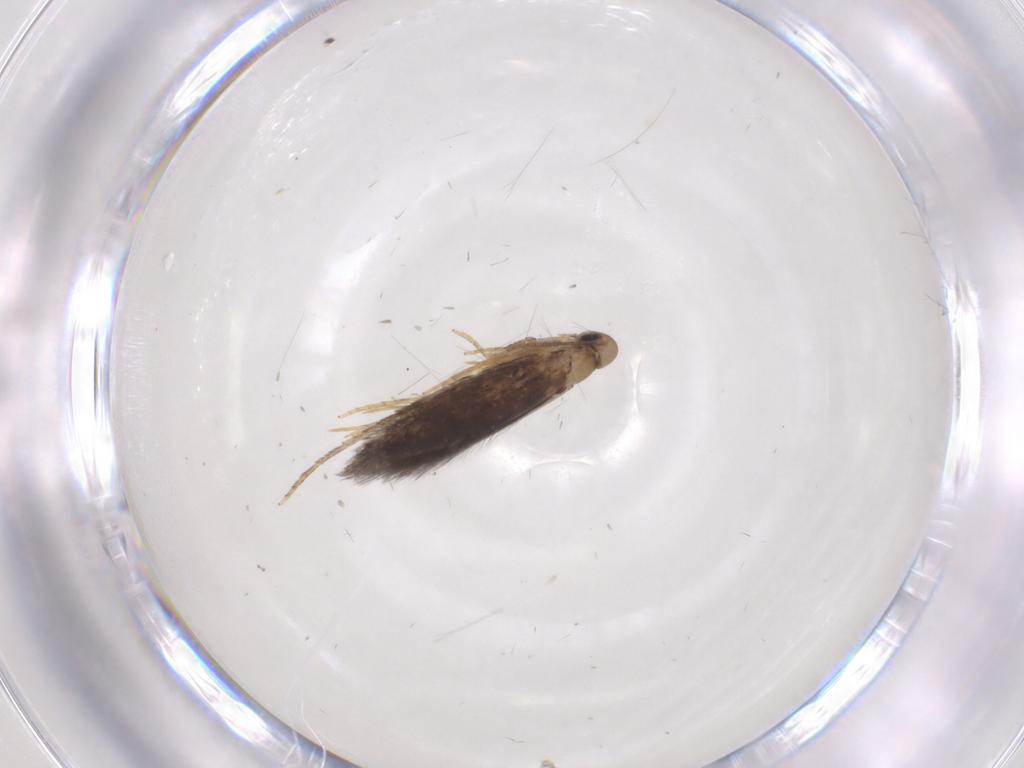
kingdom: Animalia
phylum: Arthropoda
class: Insecta
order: Lepidoptera
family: Heliozelidae
